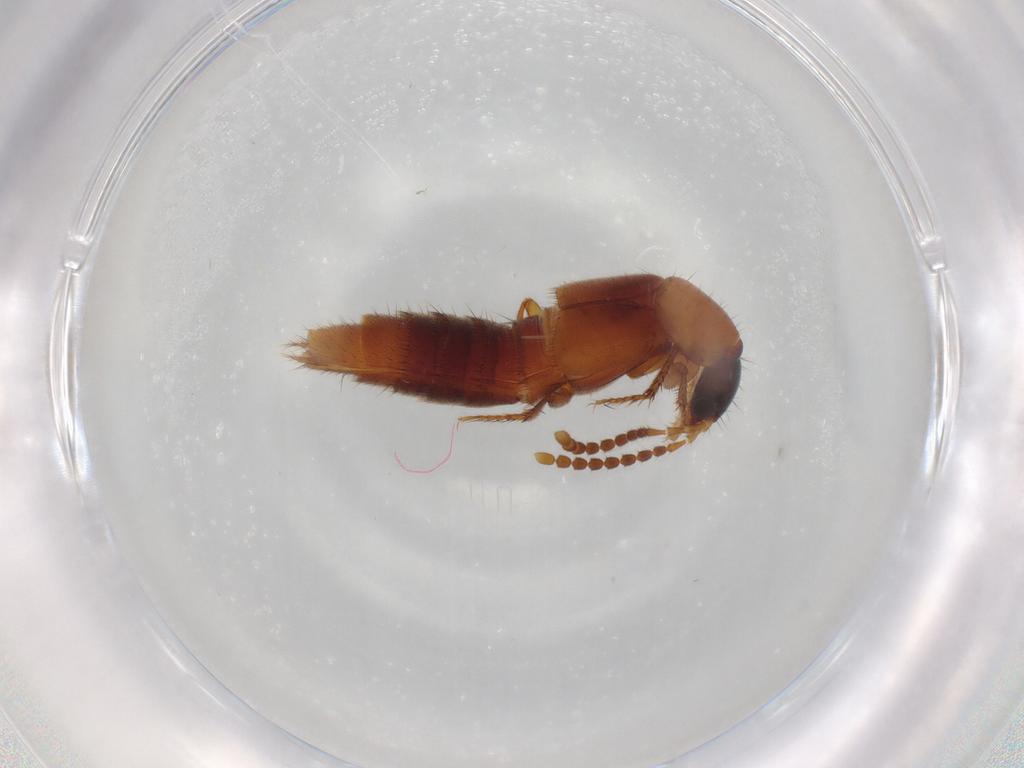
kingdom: Animalia
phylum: Arthropoda
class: Insecta
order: Coleoptera
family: Staphylinidae
